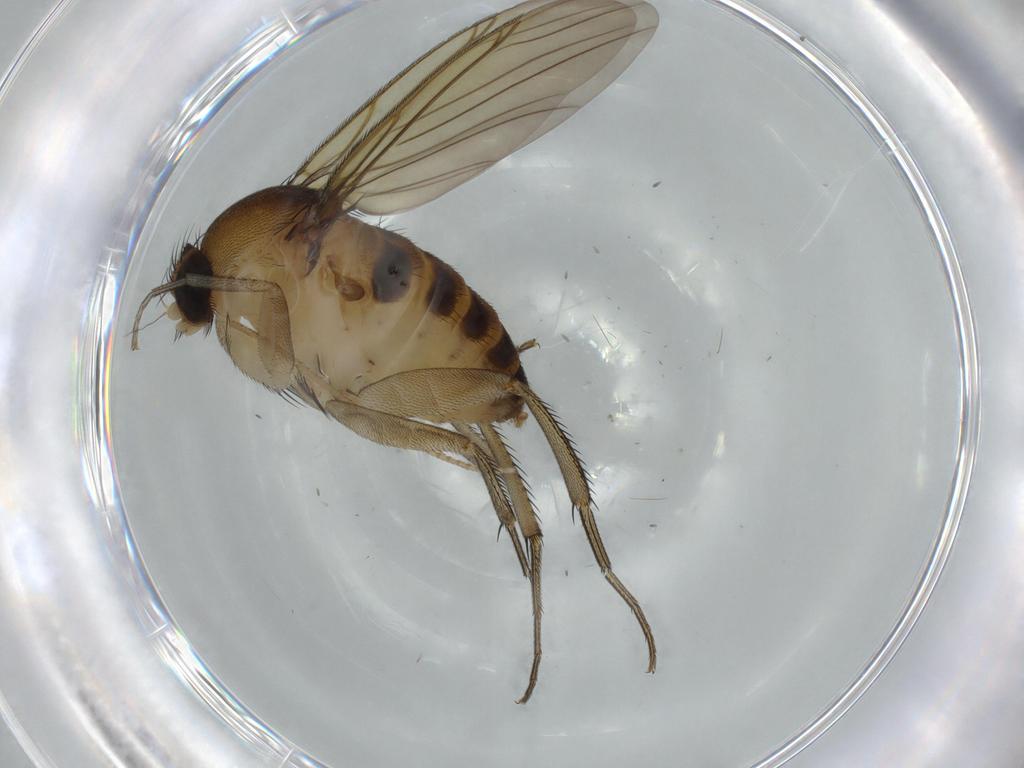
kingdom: Animalia
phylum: Arthropoda
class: Insecta
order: Diptera
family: Phoridae
